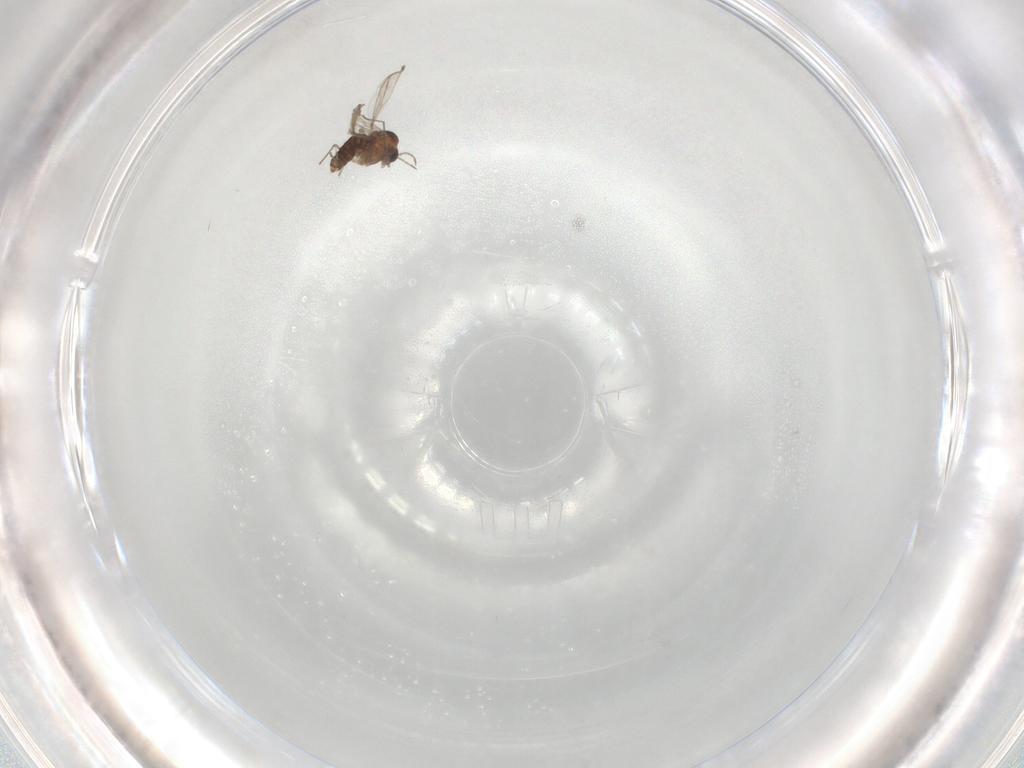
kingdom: Animalia
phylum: Arthropoda
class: Insecta
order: Diptera
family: Chironomidae
